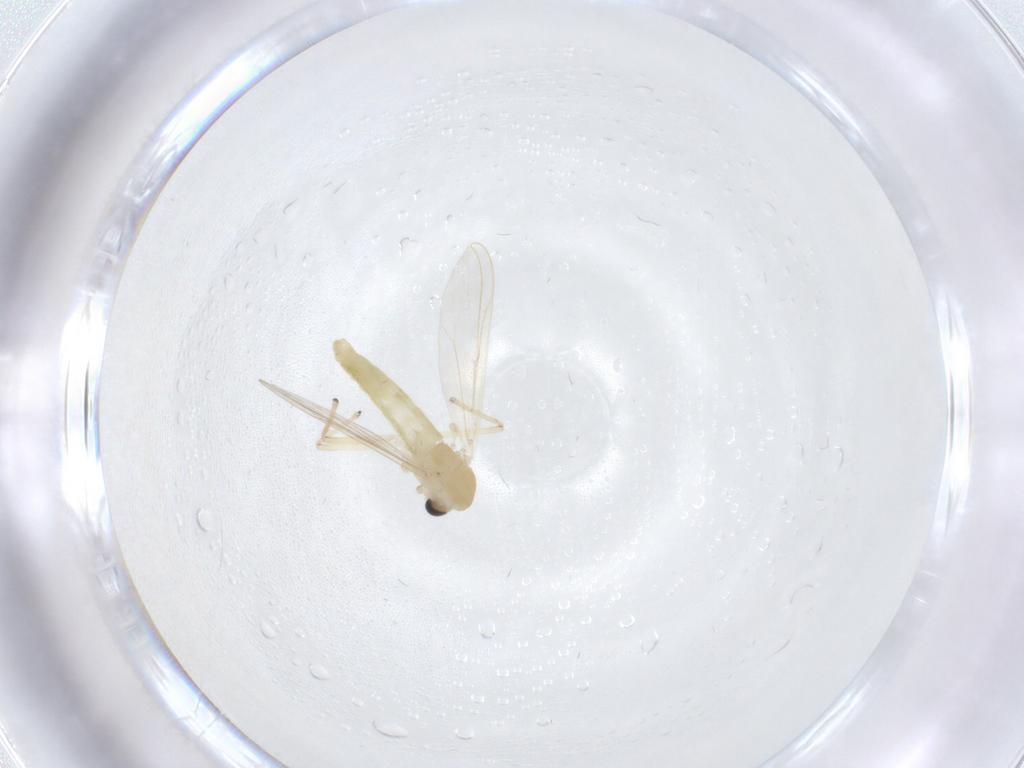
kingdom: Animalia
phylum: Arthropoda
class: Insecta
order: Diptera
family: Chironomidae
